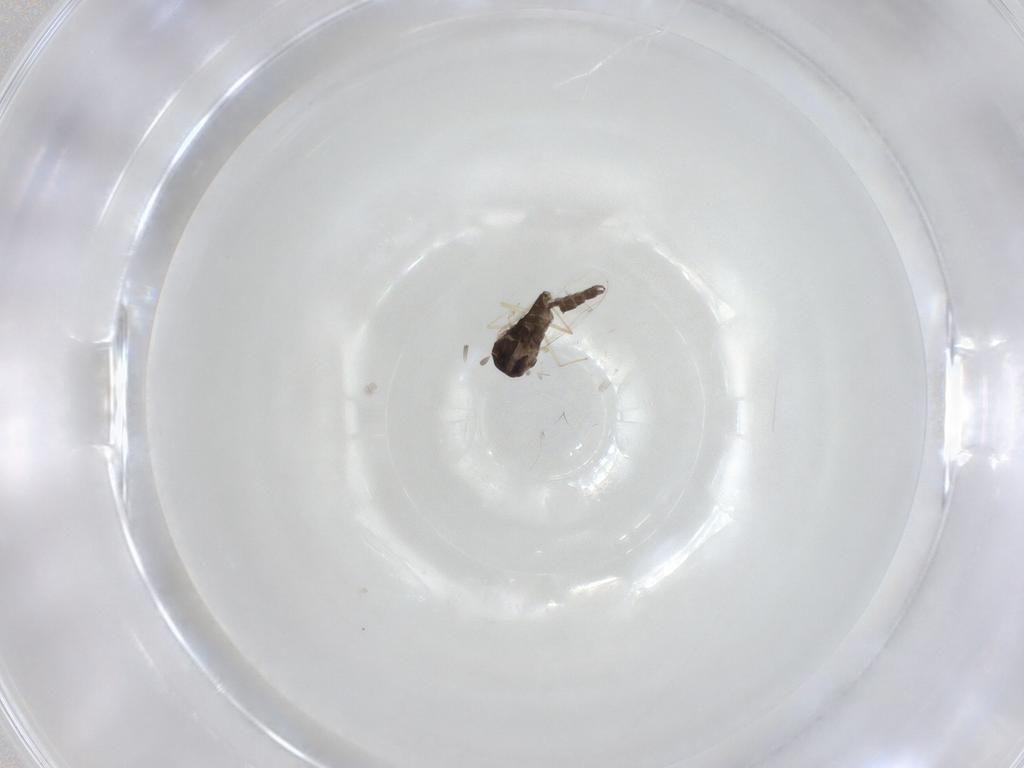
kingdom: Animalia
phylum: Arthropoda
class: Insecta
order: Diptera
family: Chironomidae
